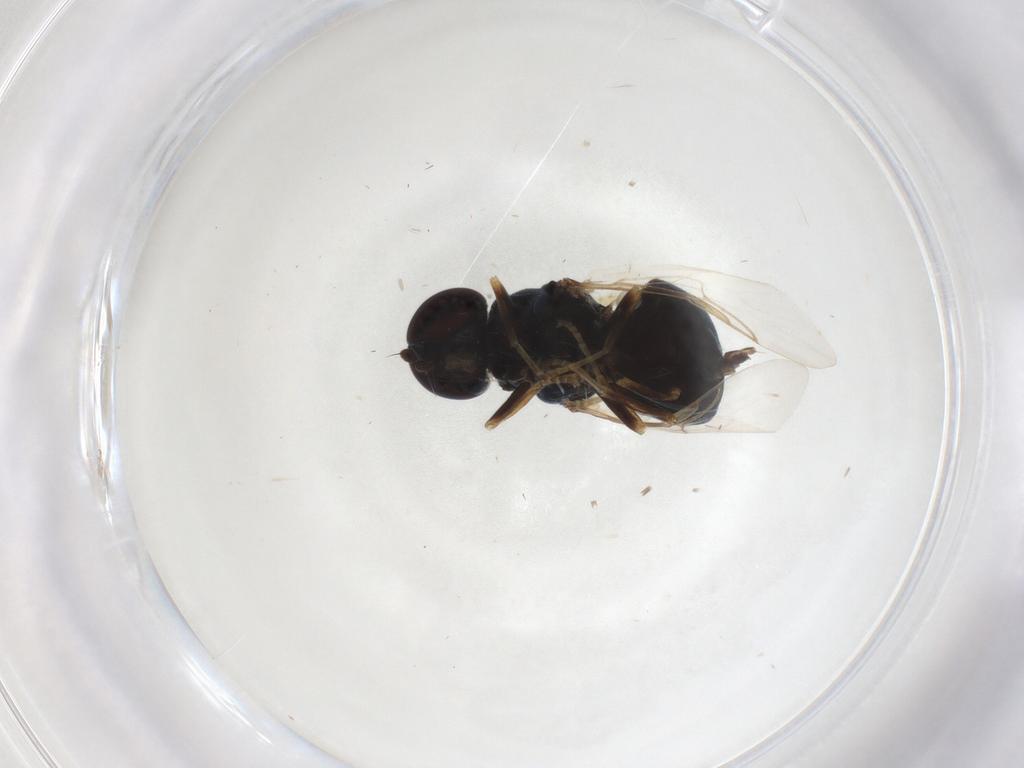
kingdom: Animalia
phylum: Arthropoda
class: Insecta
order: Diptera
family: Stratiomyidae
